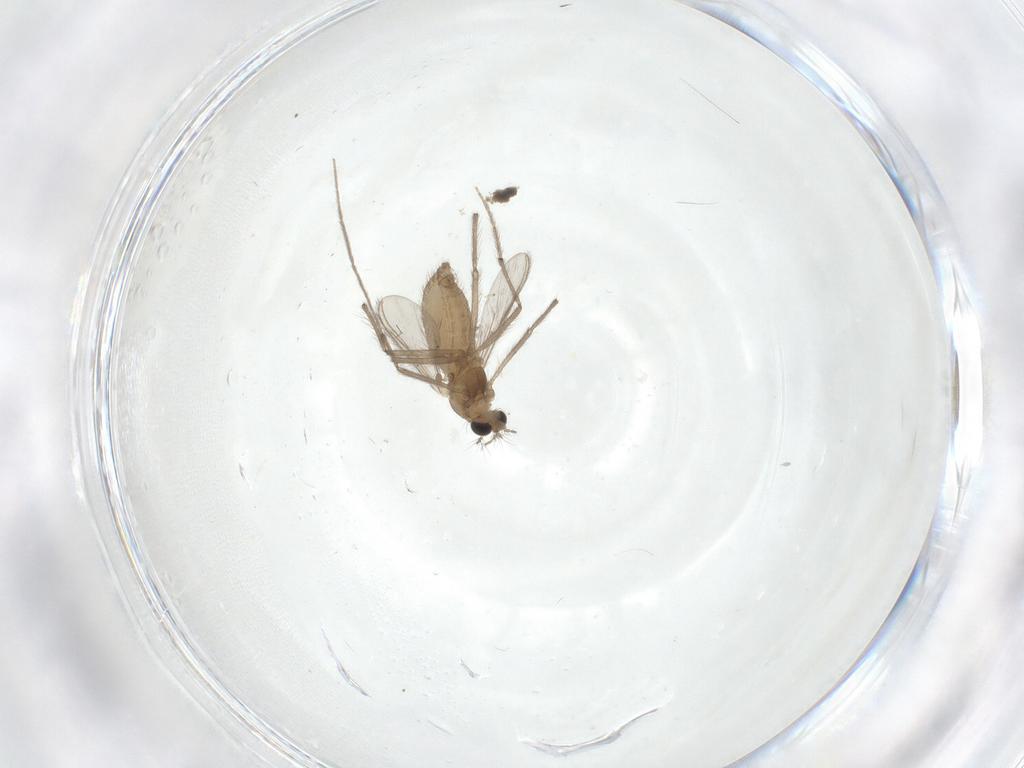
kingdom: Animalia
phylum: Arthropoda
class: Insecta
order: Diptera
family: Chironomidae
